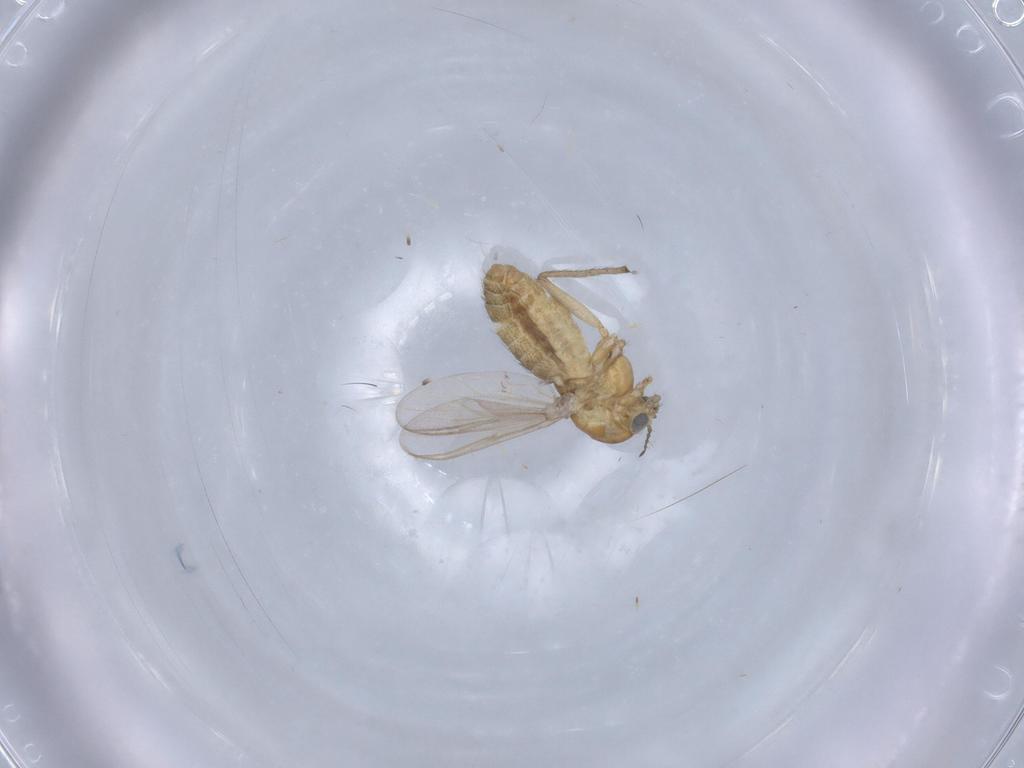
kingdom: Animalia
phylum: Arthropoda
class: Insecta
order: Diptera
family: Chironomidae
